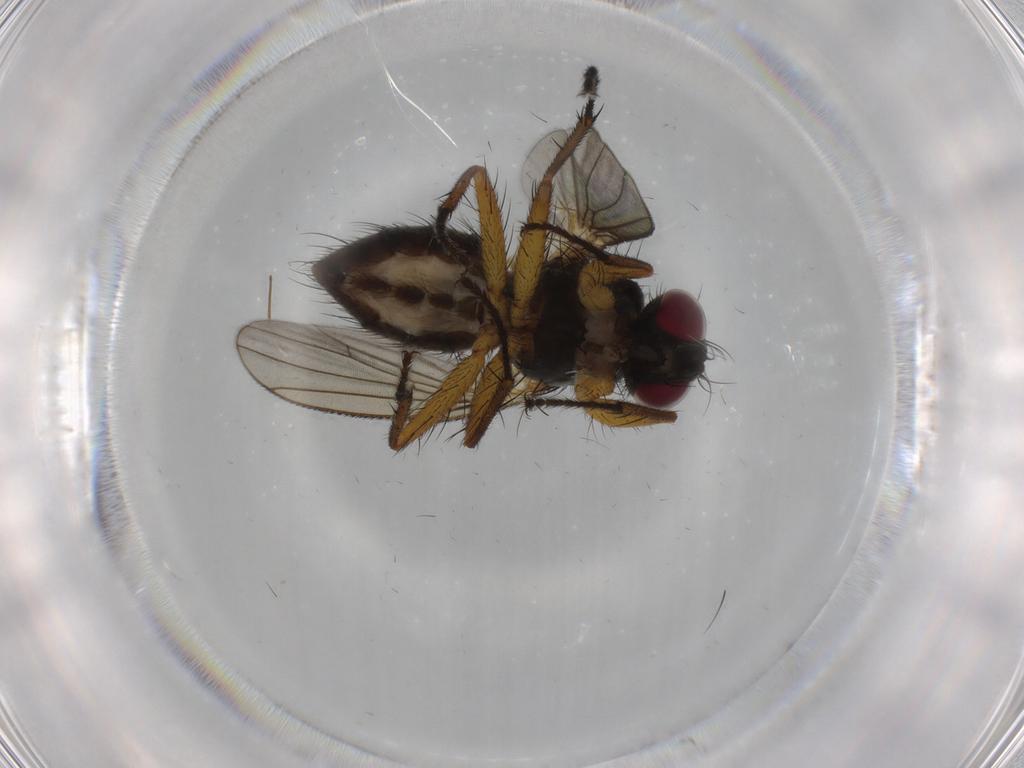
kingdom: Animalia
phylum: Arthropoda
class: Insecta
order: Diptera
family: Muscidae
